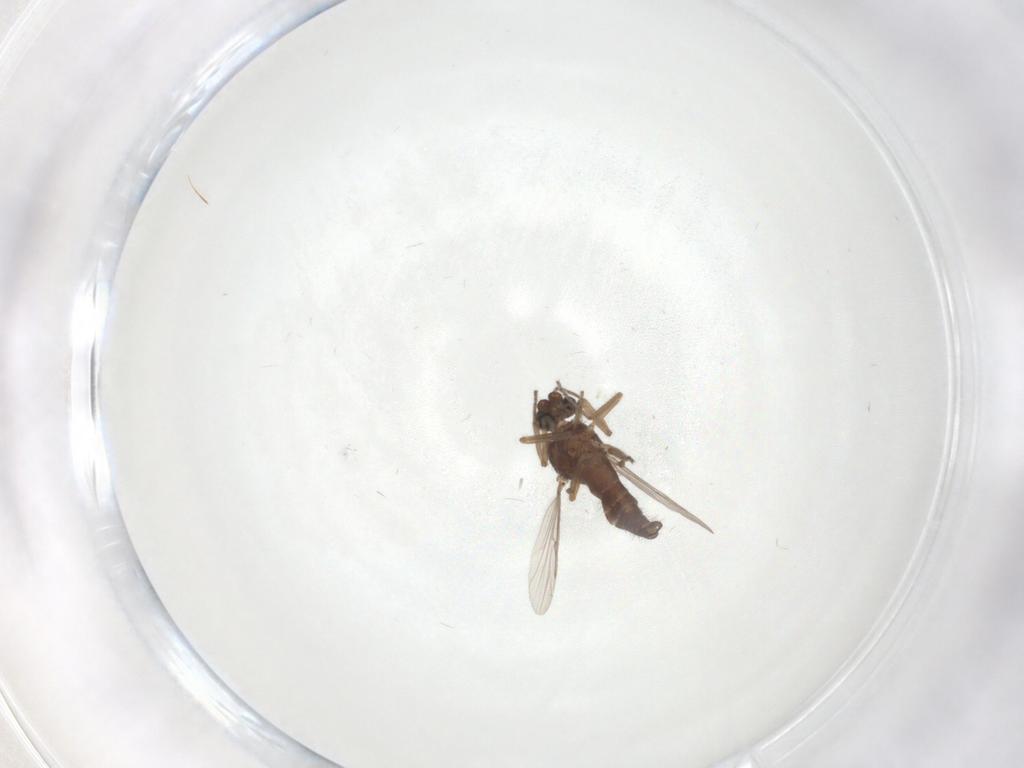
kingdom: Animalia
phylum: Arthropoda
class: Insecta
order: Diptera
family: Ceratopogonidae
